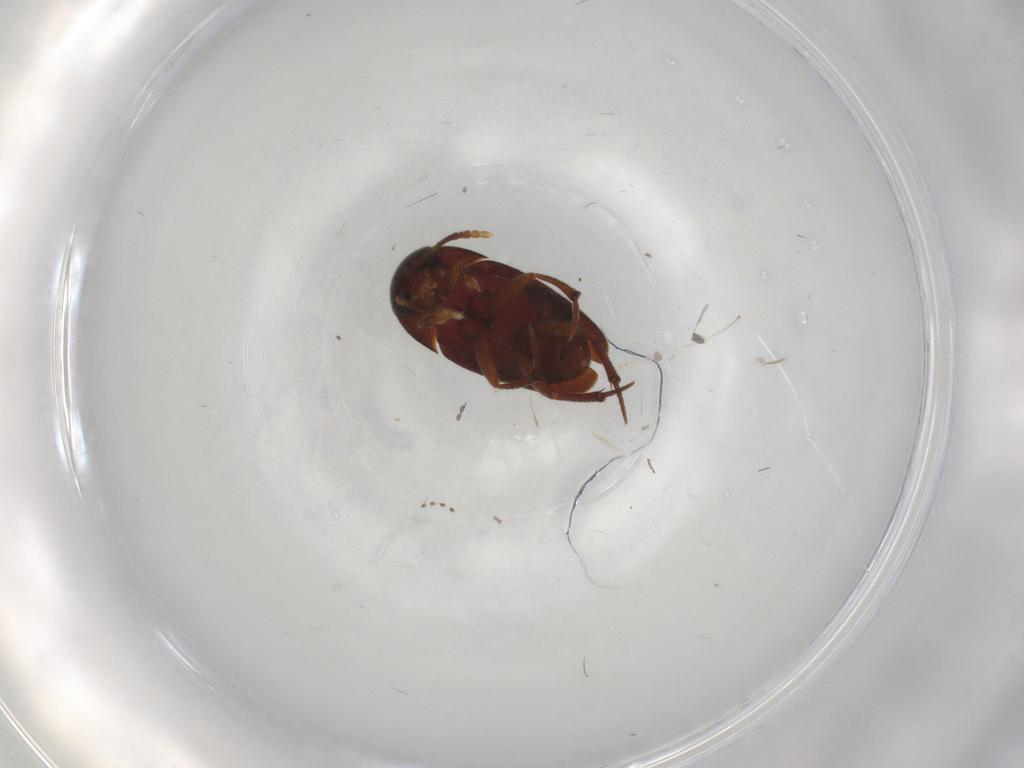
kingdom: Animalia
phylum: Arthropoda
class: Insecta
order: Coleoptera
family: Leiodidae
